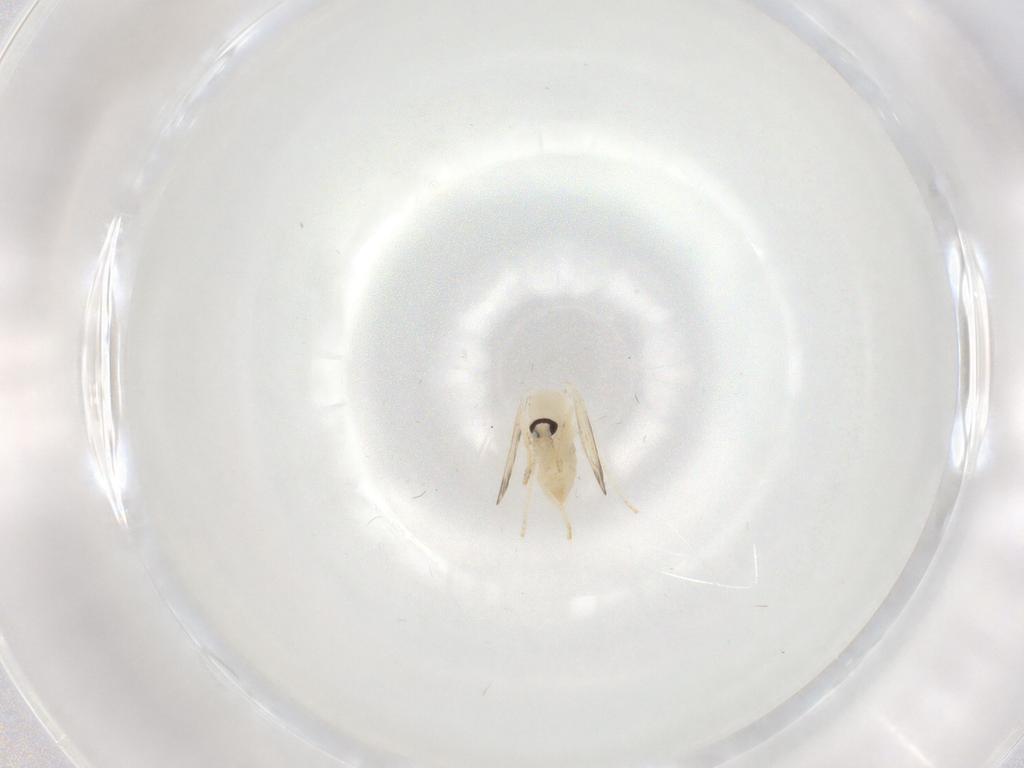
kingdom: Animalia
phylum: Arthropoda
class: Insecta
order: Diptera
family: Psychodidae
